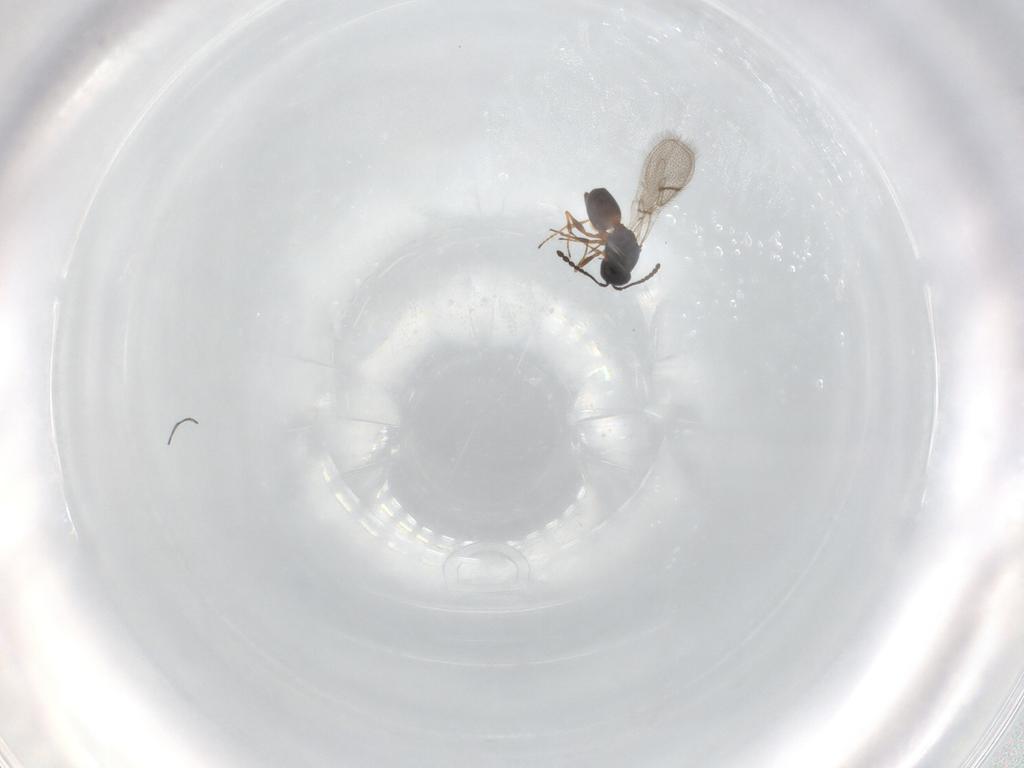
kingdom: Animalia
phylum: Arthropoda
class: Insecta
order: Hymenoptera
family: Figitidae
